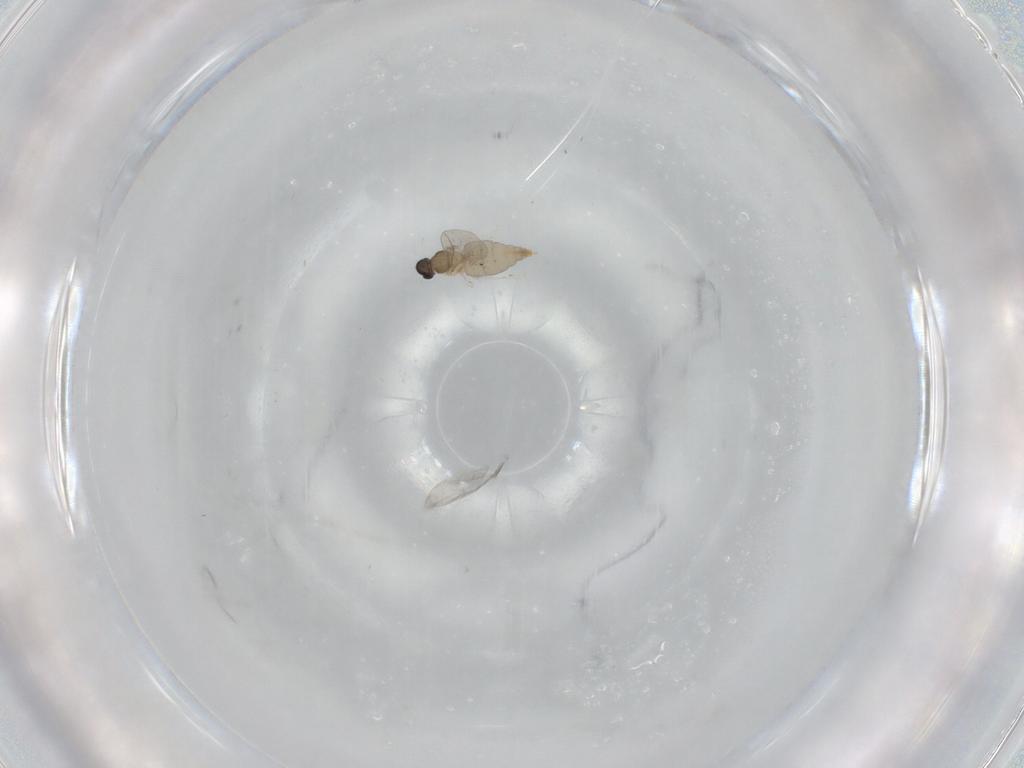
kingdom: Animalia
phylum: Arthropoda
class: Insecta
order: Diptera
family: Cecidomyiidae
